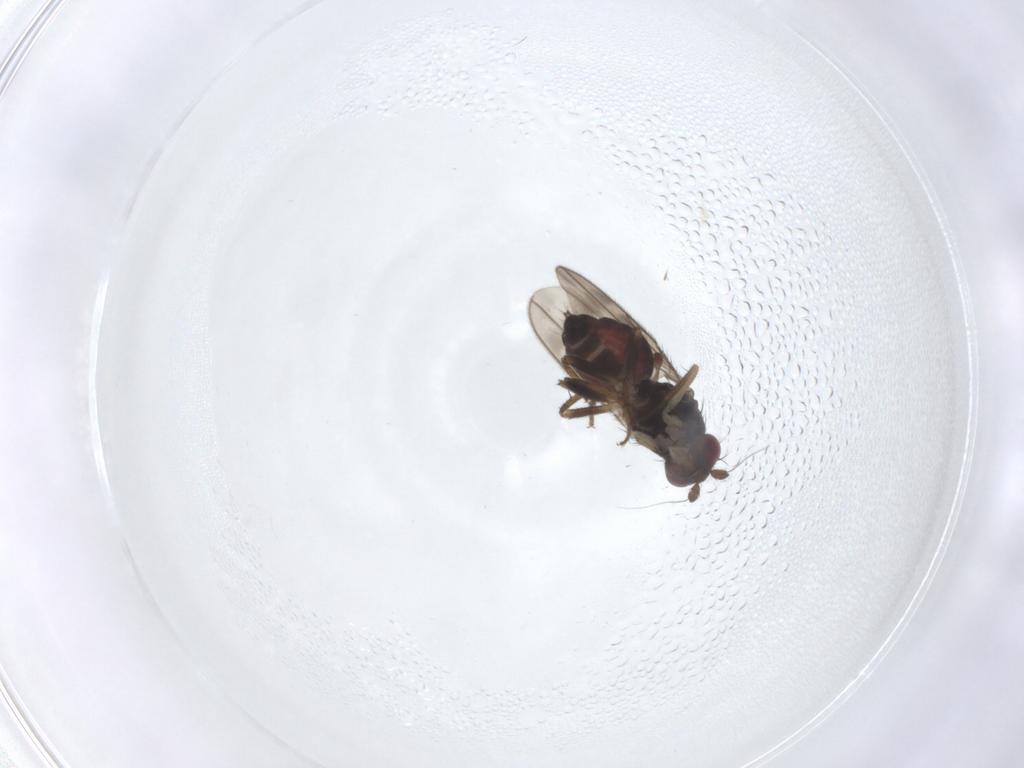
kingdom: Animalia
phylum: Arthropoda
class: Insecta
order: Diptera
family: Sphaeroceridae
